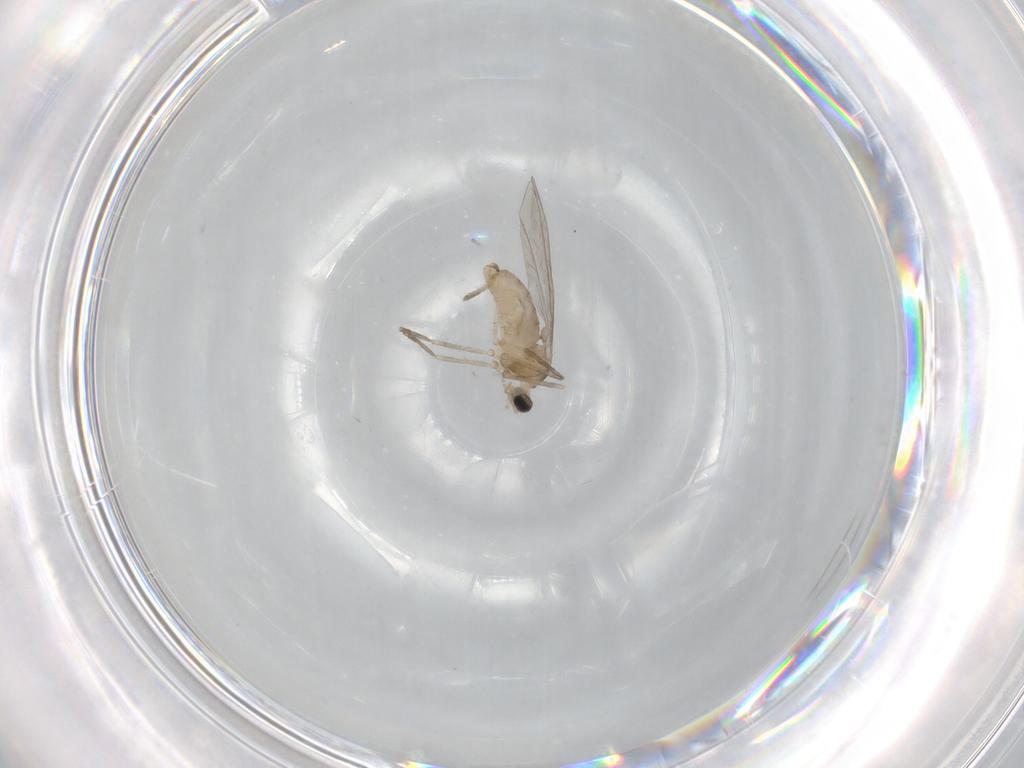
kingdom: Animalia
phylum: Arthropoda
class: Insecta
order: Diptera
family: Cecidomyiidae
